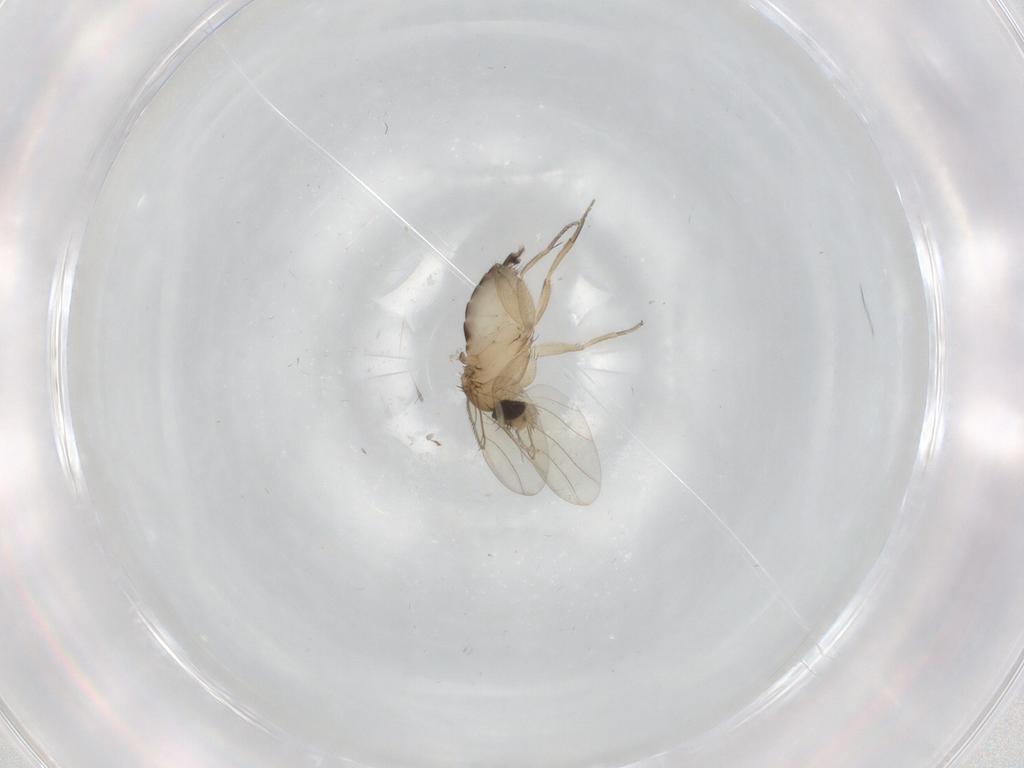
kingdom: Animalia
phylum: Arthropoda
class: Insecta
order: Diptera
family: Phoridae
